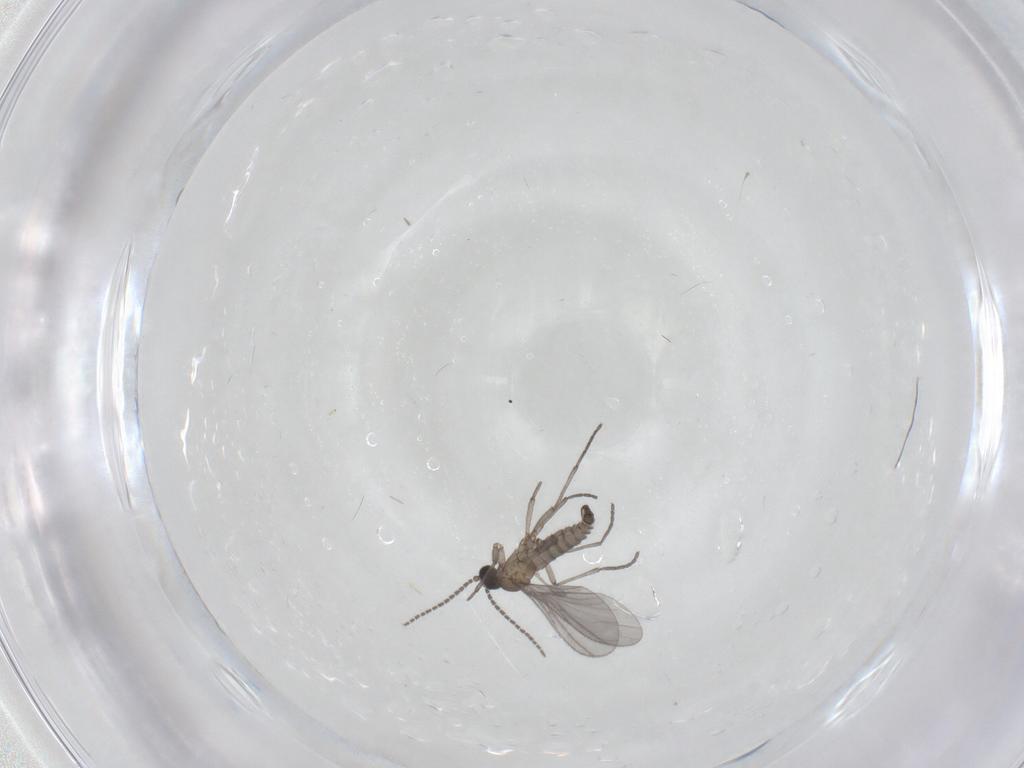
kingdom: Animalia
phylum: Arthropoda
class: Insecta
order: Diptera
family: Sciaridae
